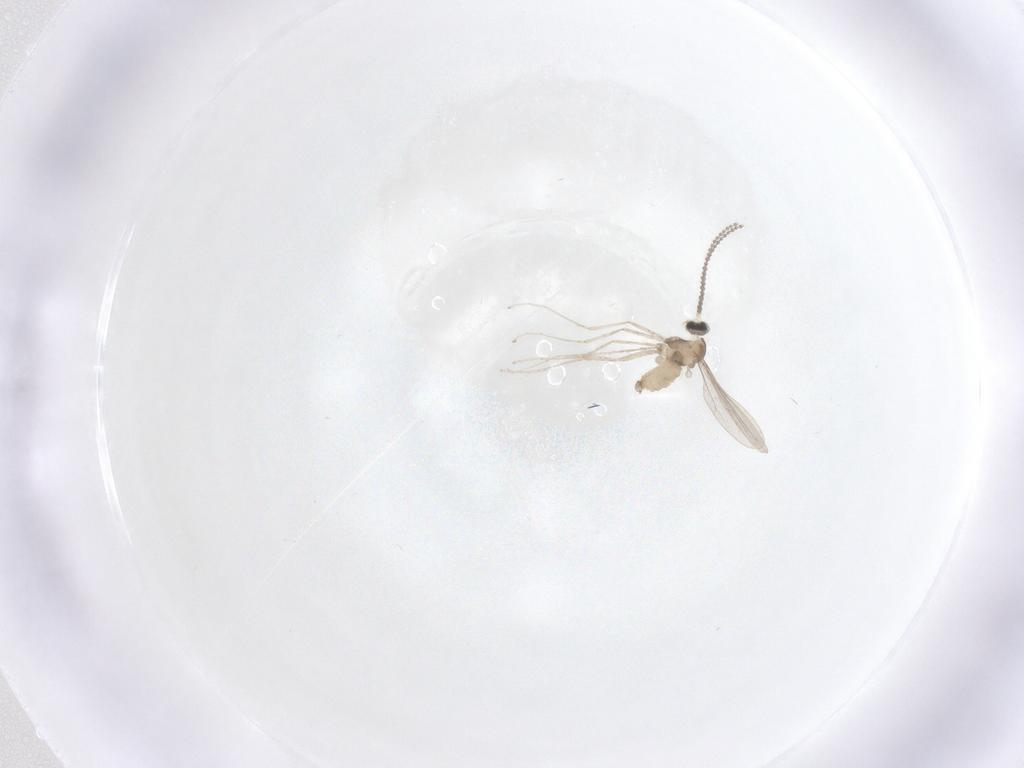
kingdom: Animalia
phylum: Arthropoda
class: Insecta
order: Diptera
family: Cecidomyiidae
